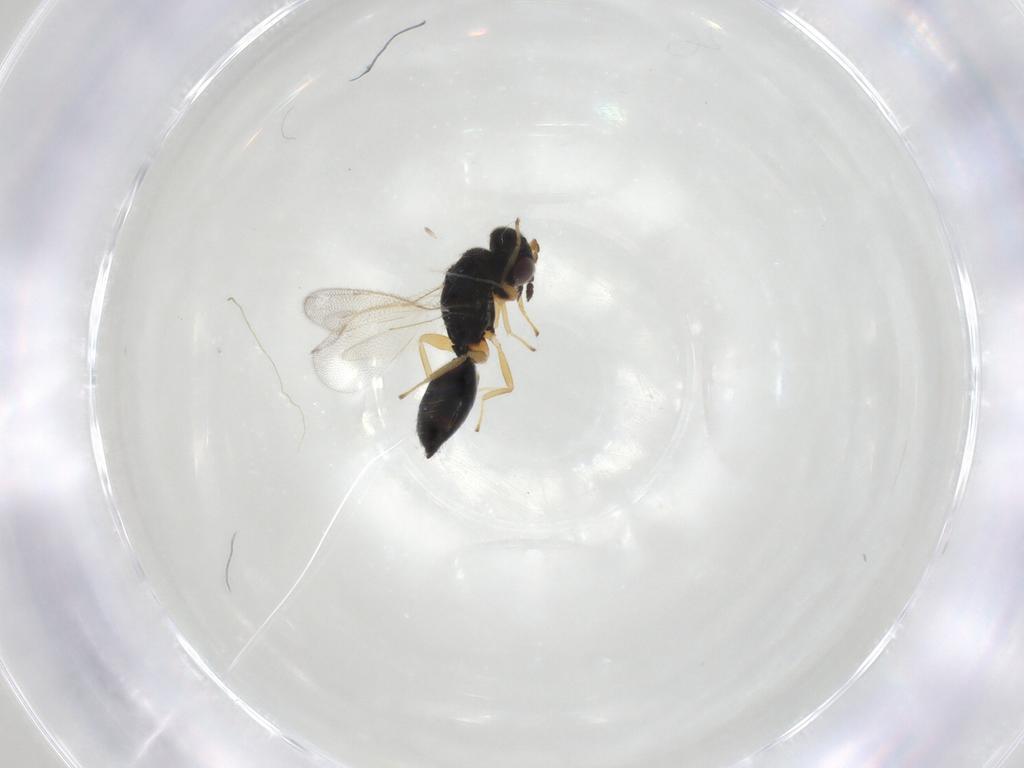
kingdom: Animalia
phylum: Arthropoda
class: Insecta
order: Hymenoptera
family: Eulophidae
